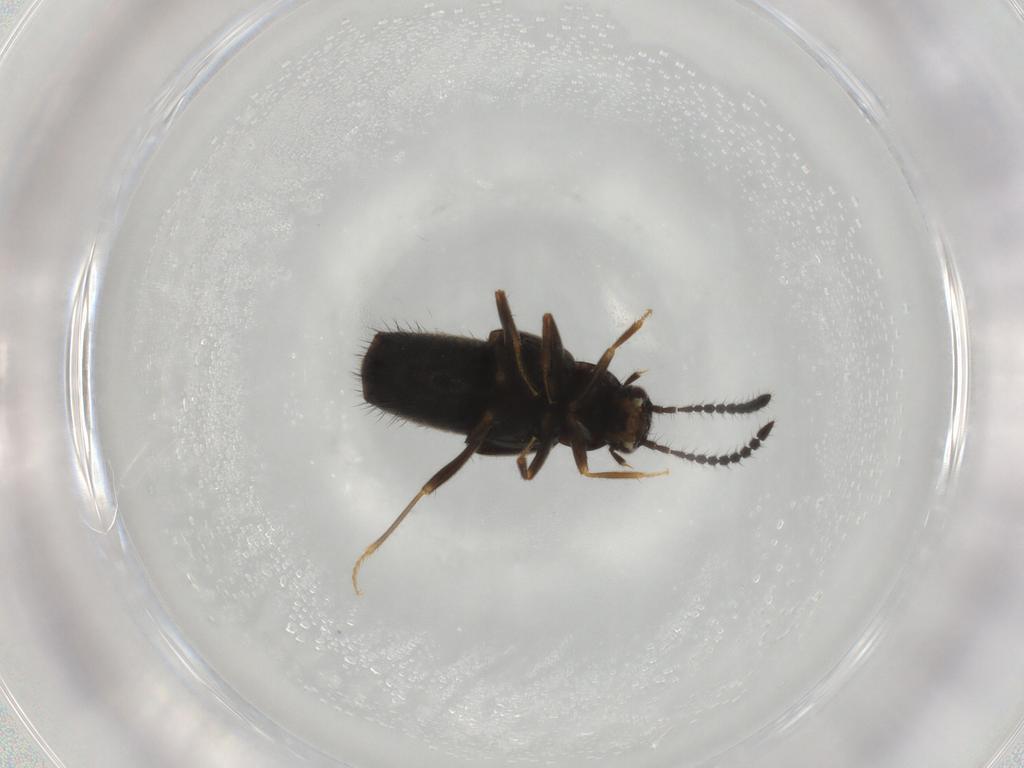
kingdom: Animalia
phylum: Arthropoda
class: Insecta
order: Coleoptera
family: Staphylinidae
